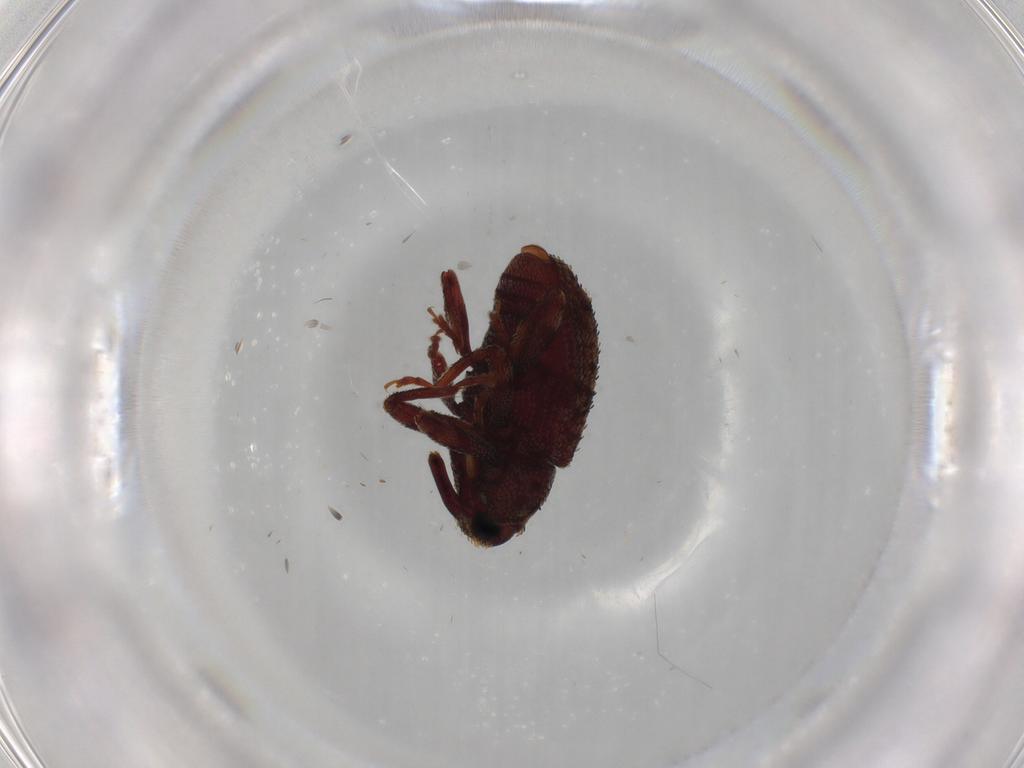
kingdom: Animalia
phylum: Arthropoda
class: Insecta
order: Coleoptera
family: Curculionidae
